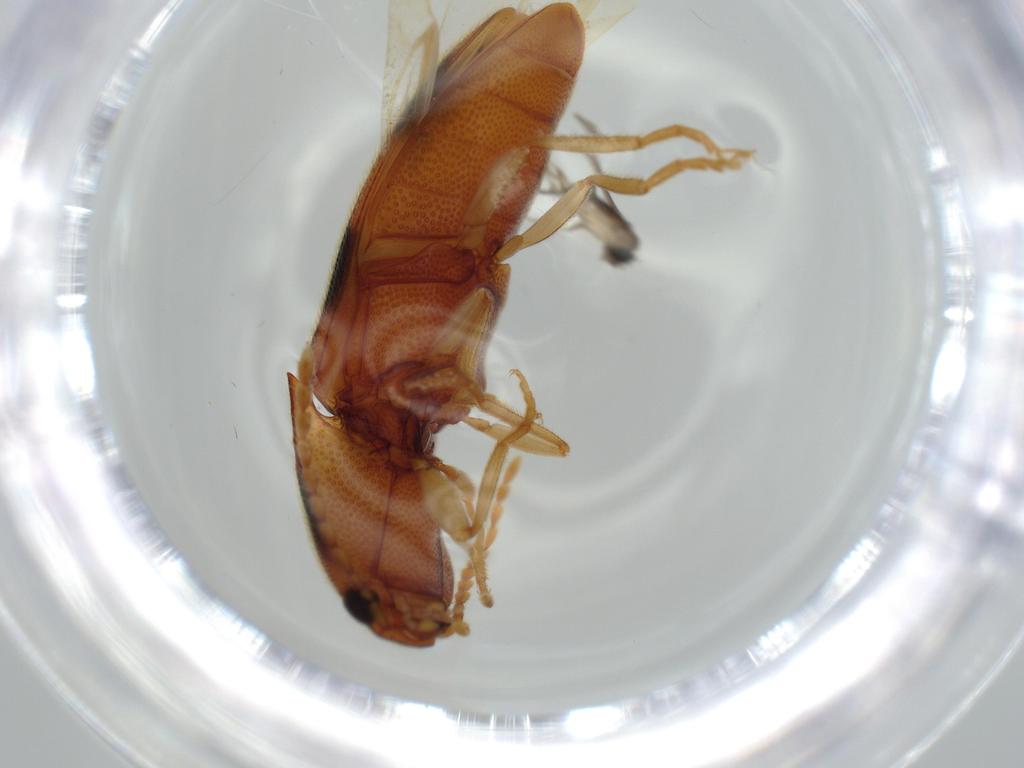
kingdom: Animalia
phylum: Arthropoda
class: Insecta
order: Diptera
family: Phoridae
